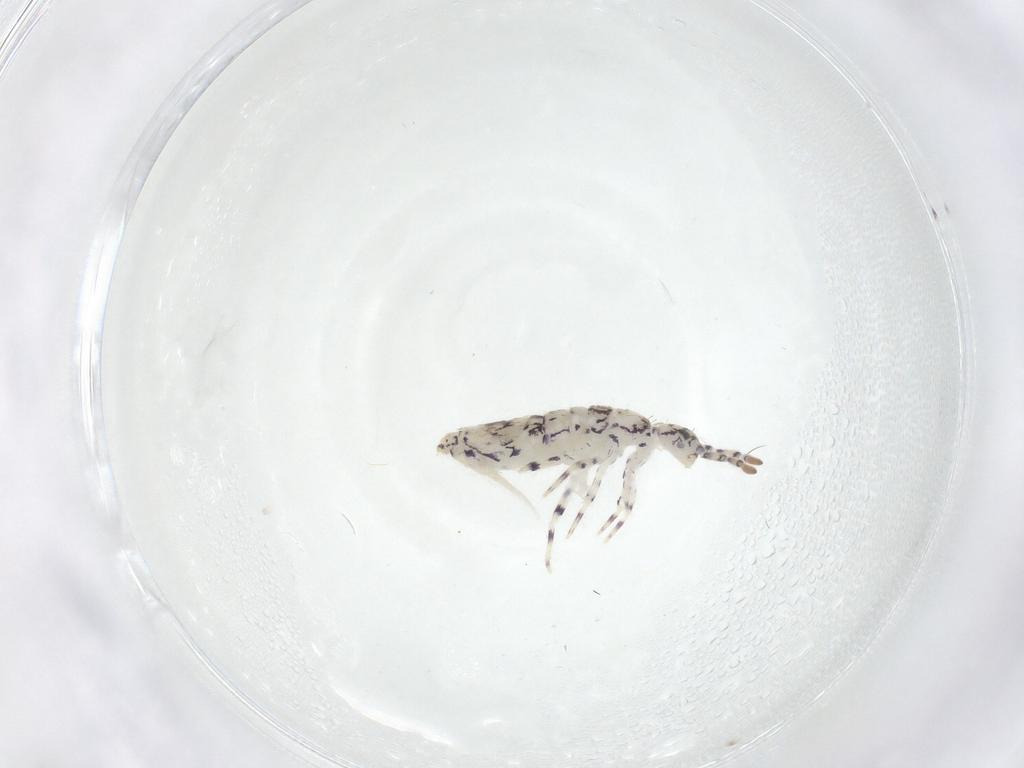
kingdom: Animalia
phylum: Arthropoda
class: Collembola
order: Entomobryomorpha
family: Entomobryidae
